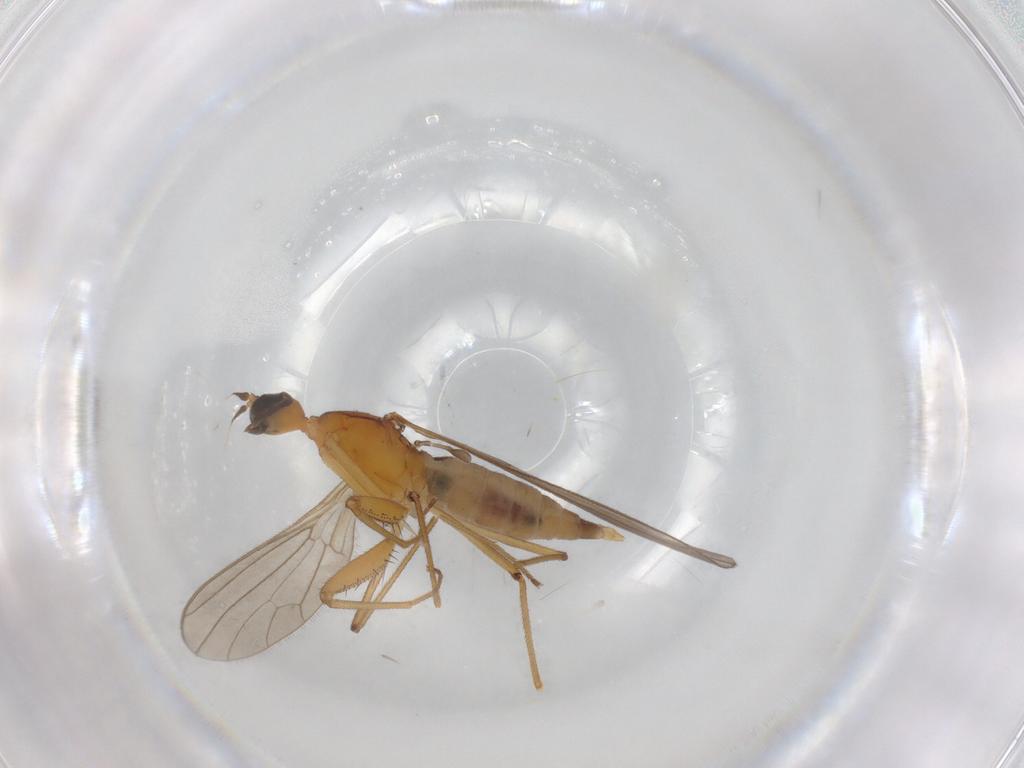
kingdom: Animalia
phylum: Arthropoda
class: Insecta
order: Diptera
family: Empididae
